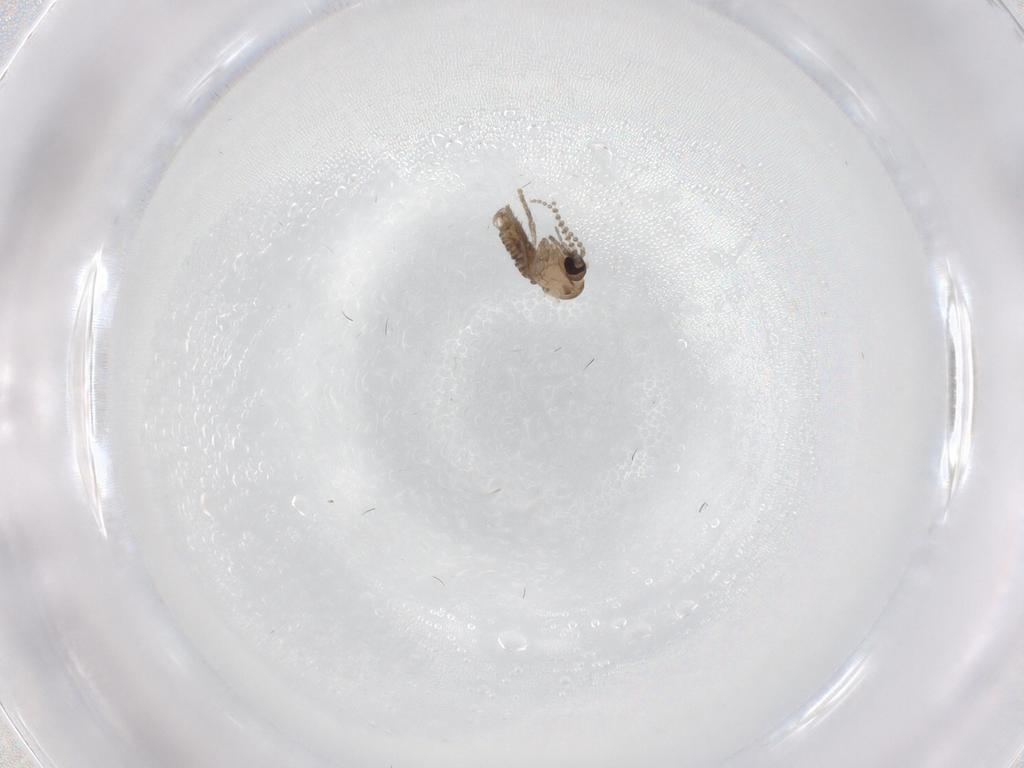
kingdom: Animalia
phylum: Arthropoda
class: Insecta
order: Diptera
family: Psychodidae
